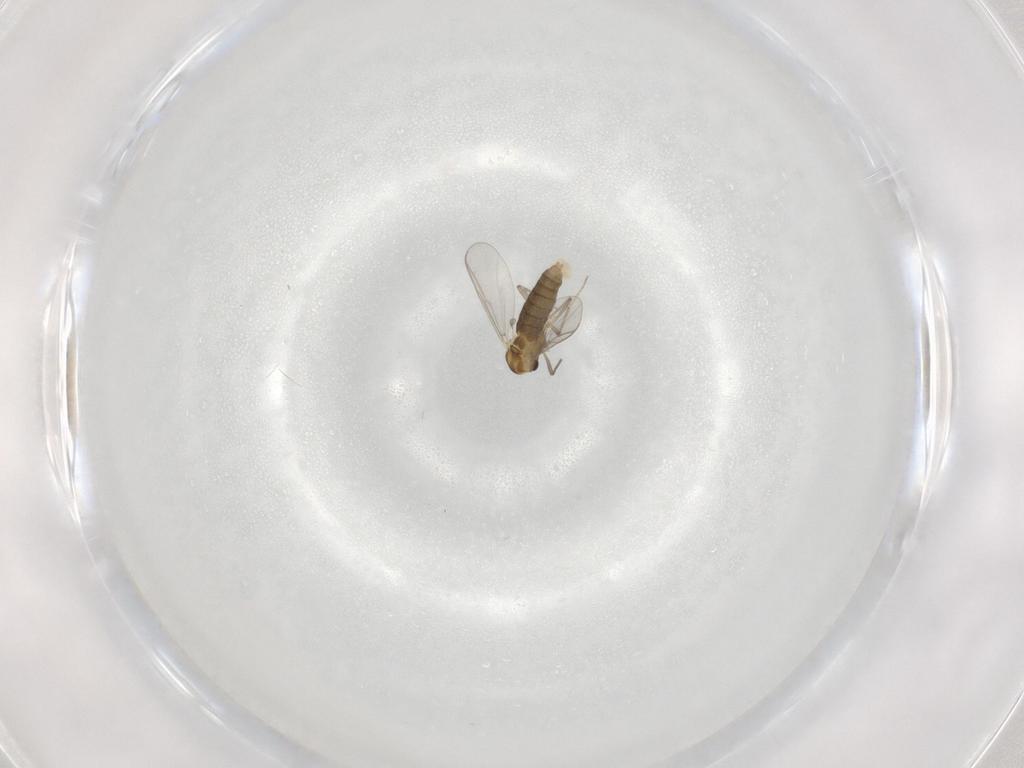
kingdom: Animalia
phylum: Arthropoda
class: Insecta
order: Diptera
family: Chironomidae
